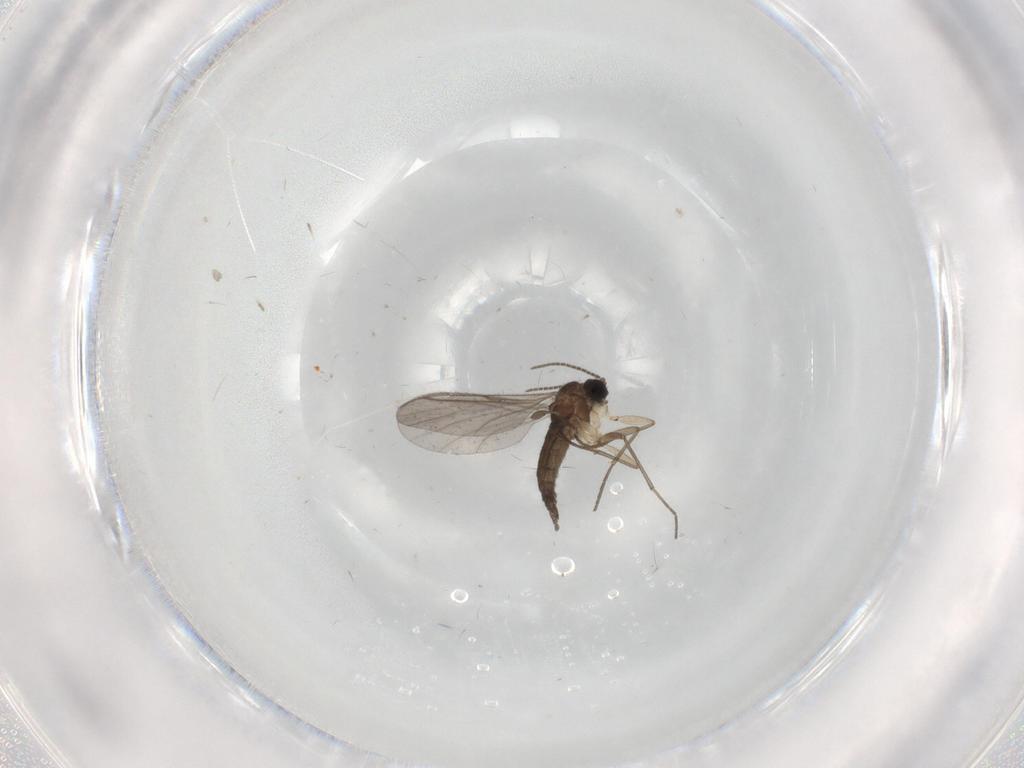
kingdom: Animalia
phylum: Arthropoda
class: Insecta
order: Diptera
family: Sciaridae
